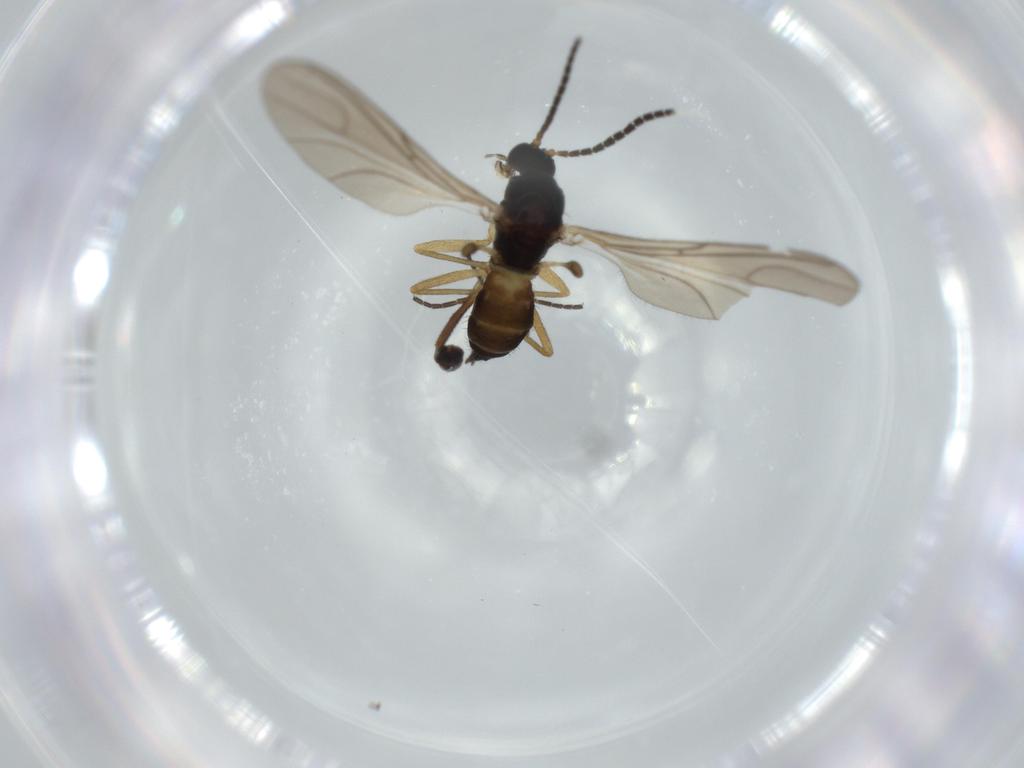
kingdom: Animalia
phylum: Arthropoda
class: Insecta
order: Diptera
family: Sciaridae
